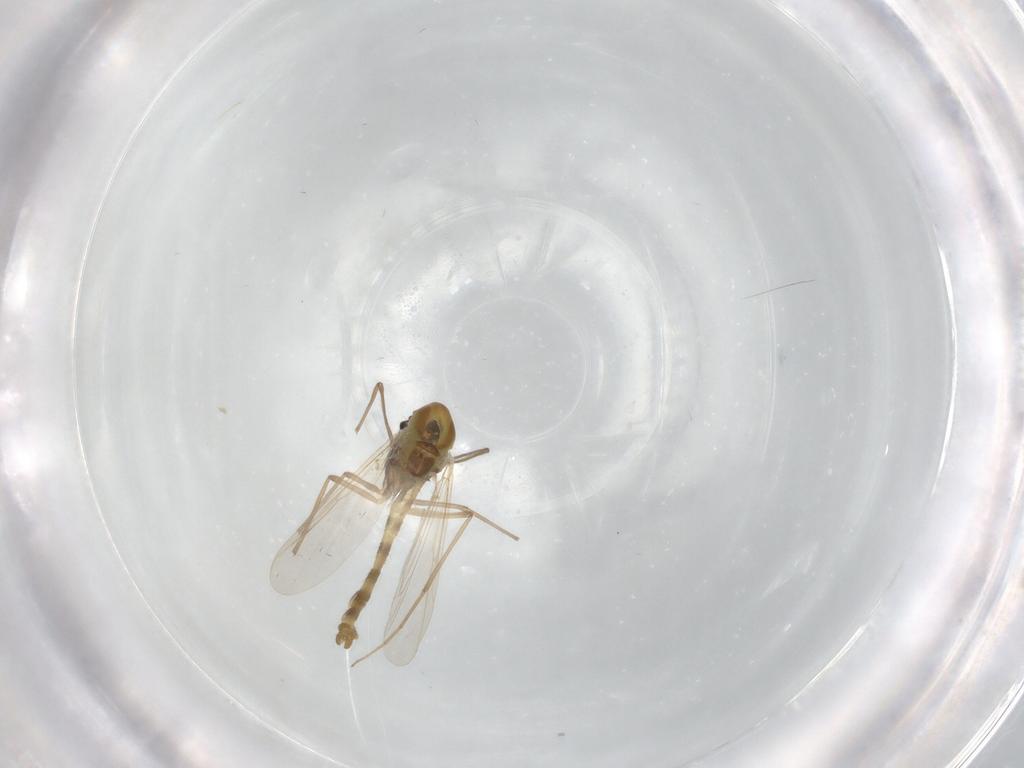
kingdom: Animalia
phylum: Arthropoda
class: Insecta
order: Diptera
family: Chironomidae
